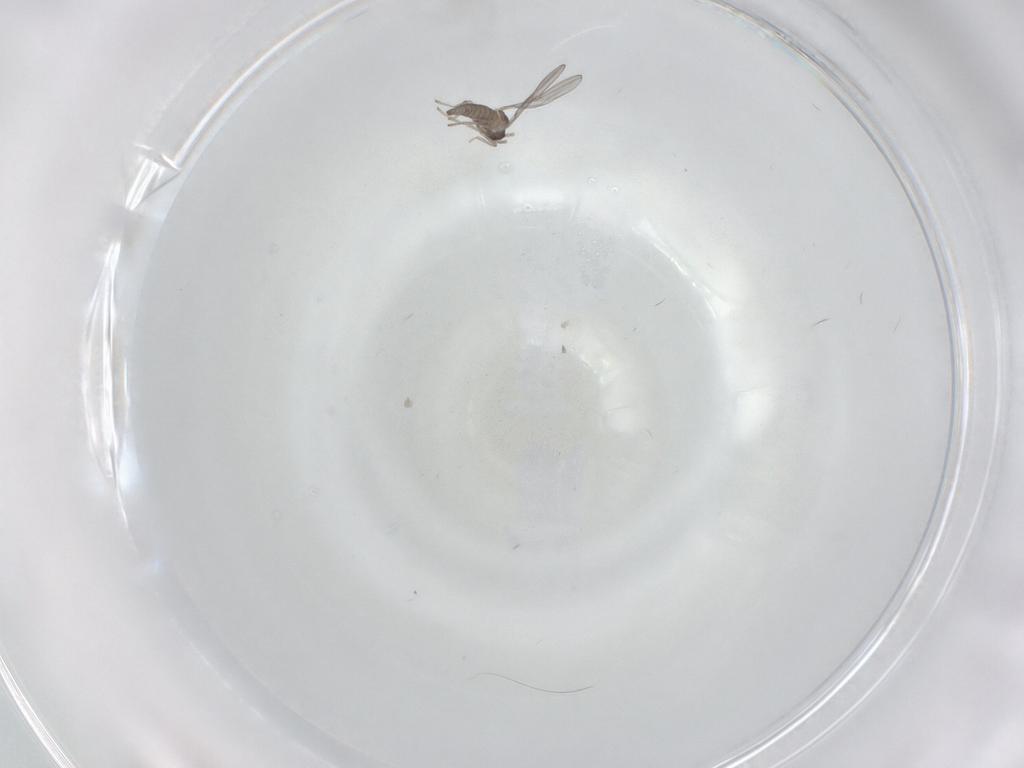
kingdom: Animalia
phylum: Arthropoda
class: Insecta
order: Diptera
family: Cecidomyiidae
